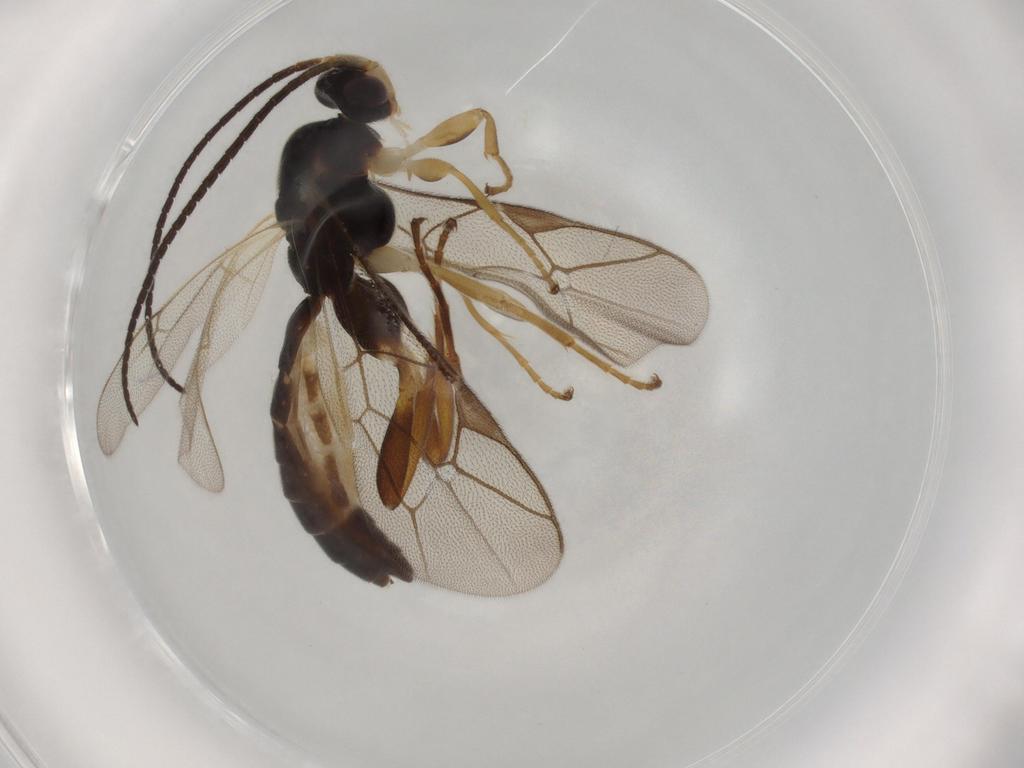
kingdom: Animalia
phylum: Arthropoda
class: Insecta
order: Hymenoptera
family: Ichneumonidae
